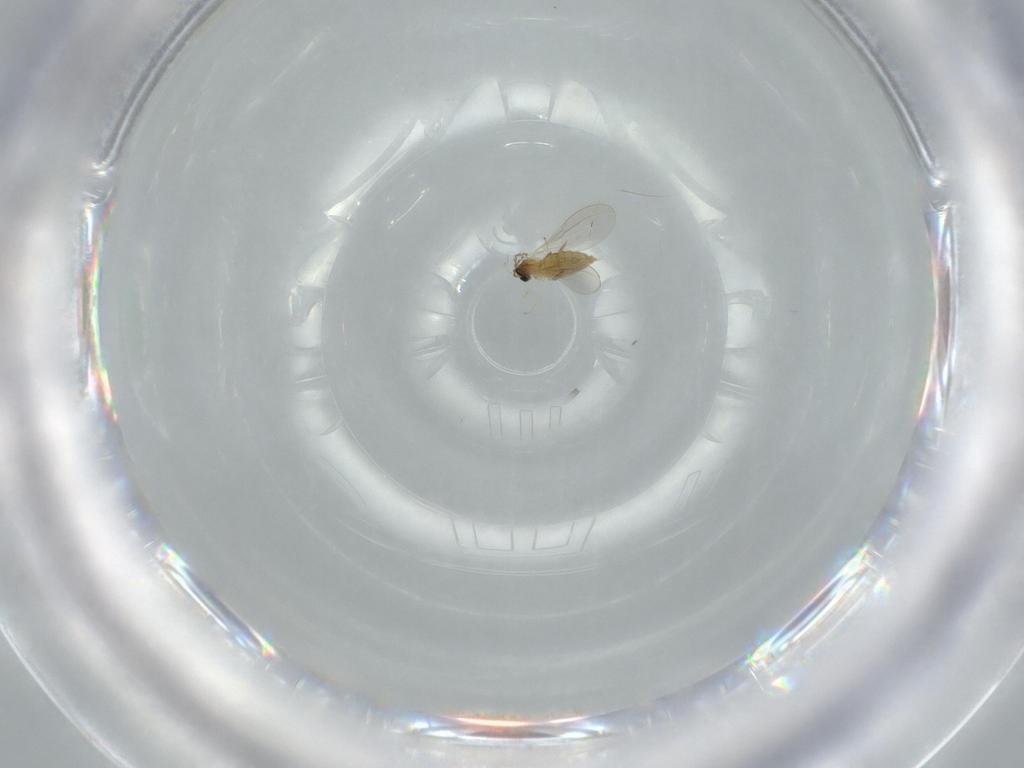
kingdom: Animalia
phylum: Arthropoda
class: Insecta
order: Diptera
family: Cecidomyiidae
